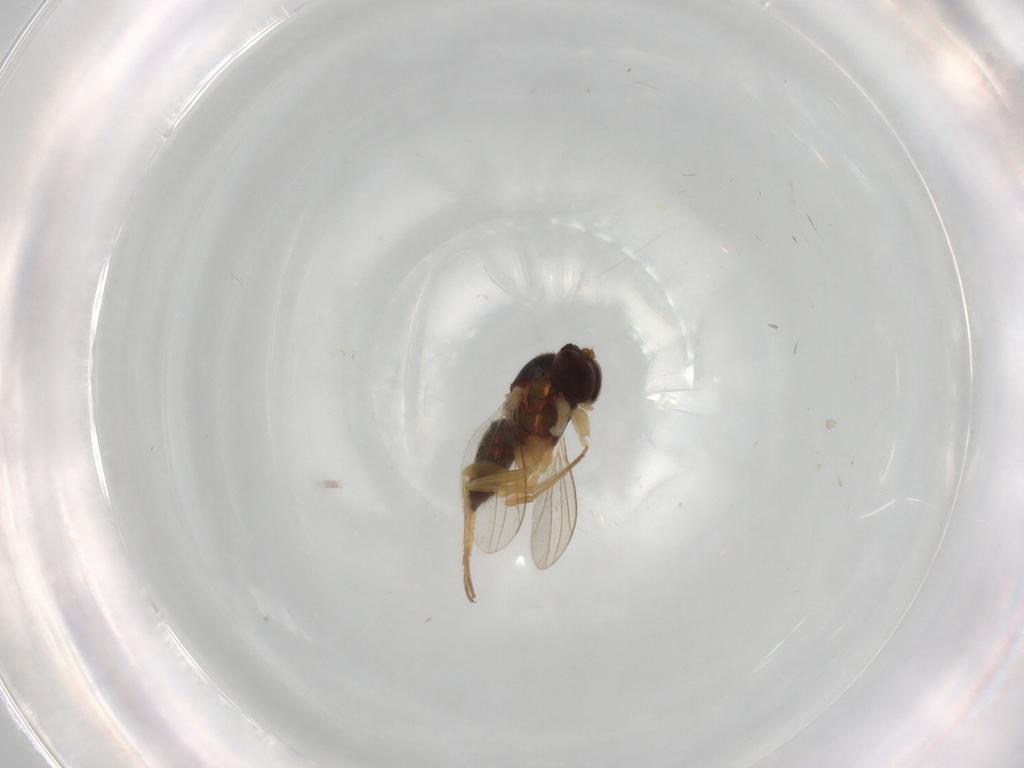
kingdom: Animalia
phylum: Arthropoda
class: Insecta
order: Diptera
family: Dolichopodidae
